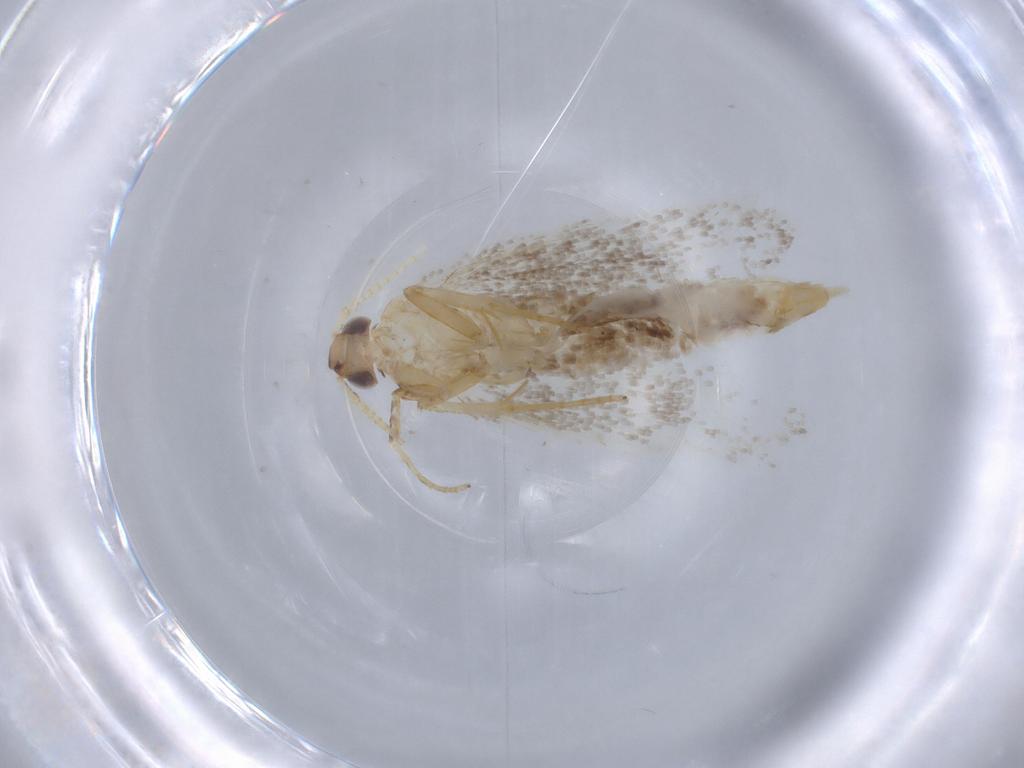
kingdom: Animalia
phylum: Arthropoda
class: Insecta
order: Lepidoptera
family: Lecithoceridae
